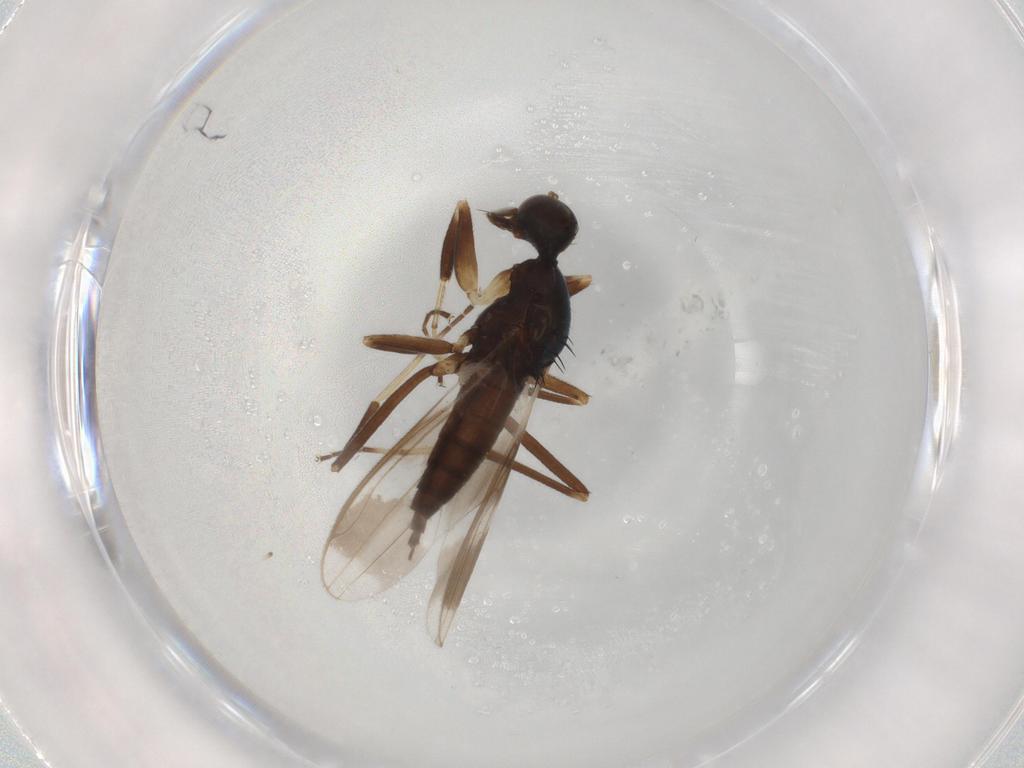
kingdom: Animalia
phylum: Arthropoda
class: Insecta
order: Diptera
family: Hybotidae
